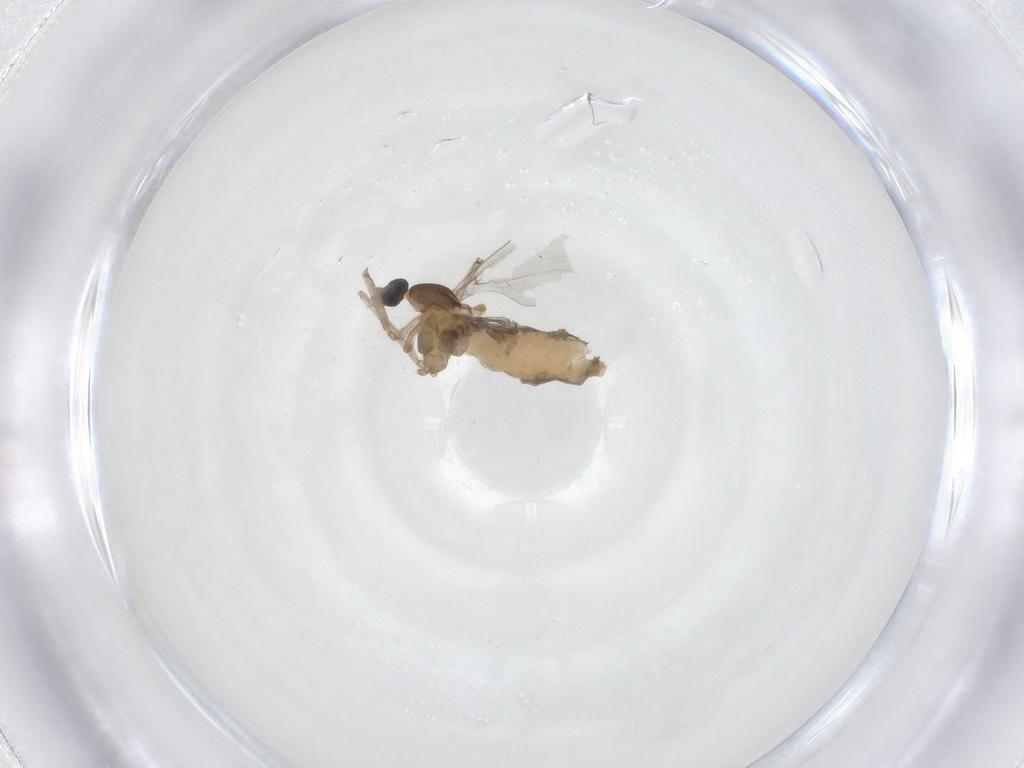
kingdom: Animalia
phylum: Arthropoda
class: Insecta
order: Diptera
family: Cecidomyiidae
